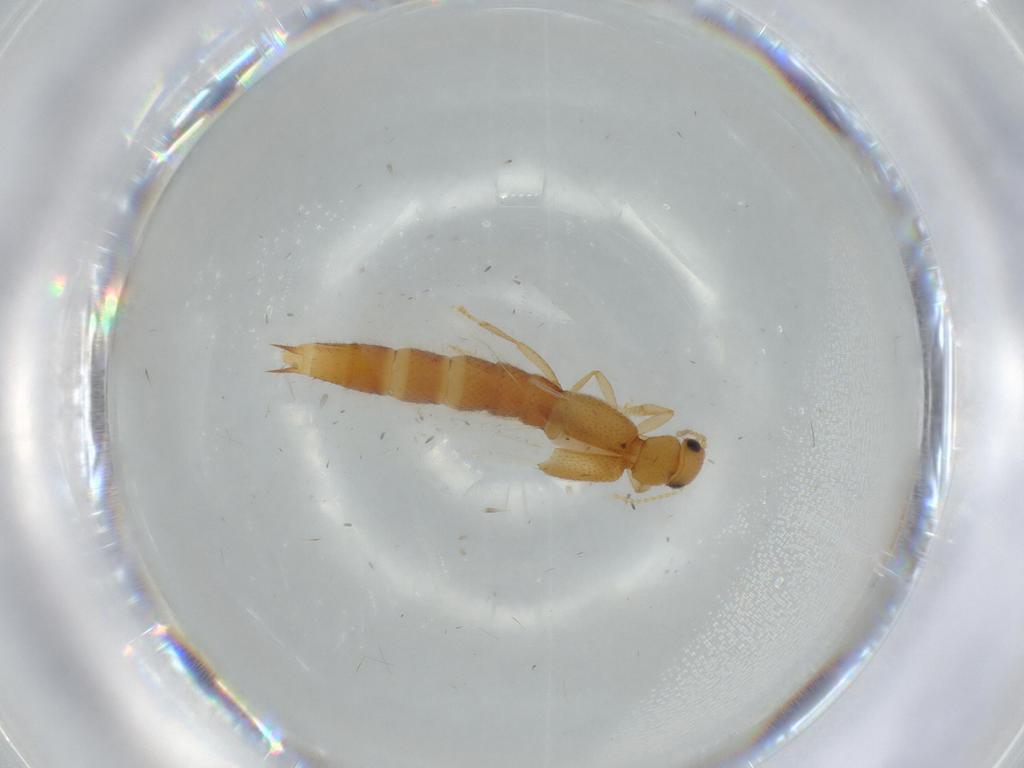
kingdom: Animalia
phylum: Arthropoda
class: Insecta
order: Coleoptera
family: Staphylinidae
